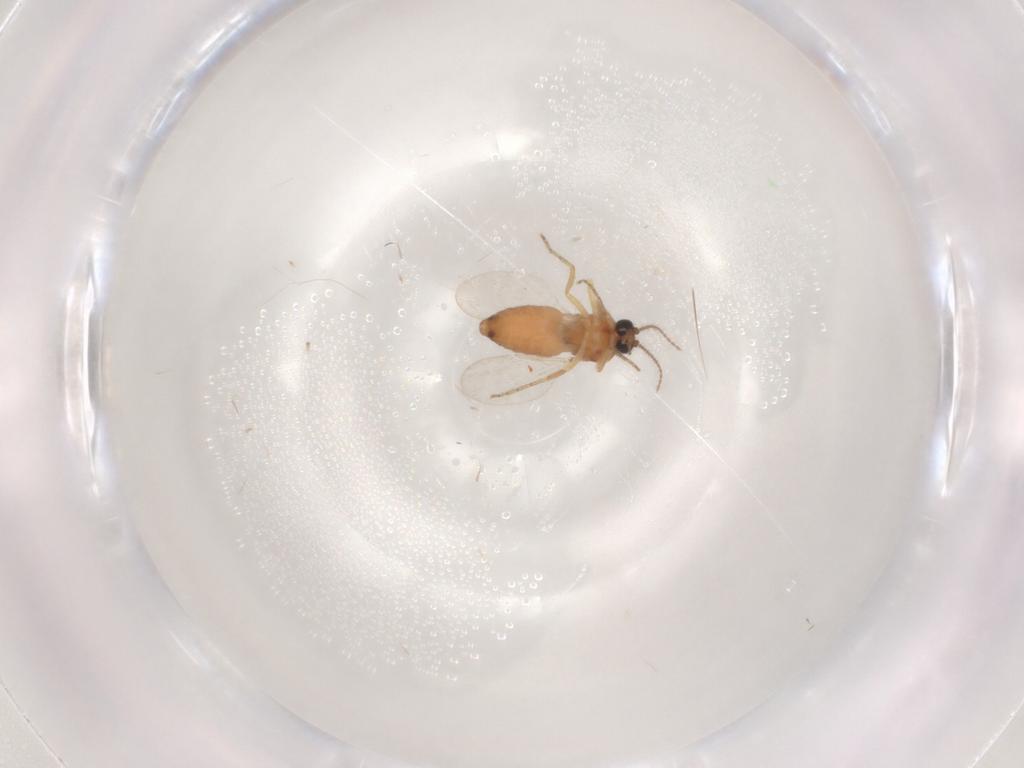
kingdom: Animalia
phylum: Arthropoda
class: Insecta
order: Diptera
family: Ceratopogonidae
